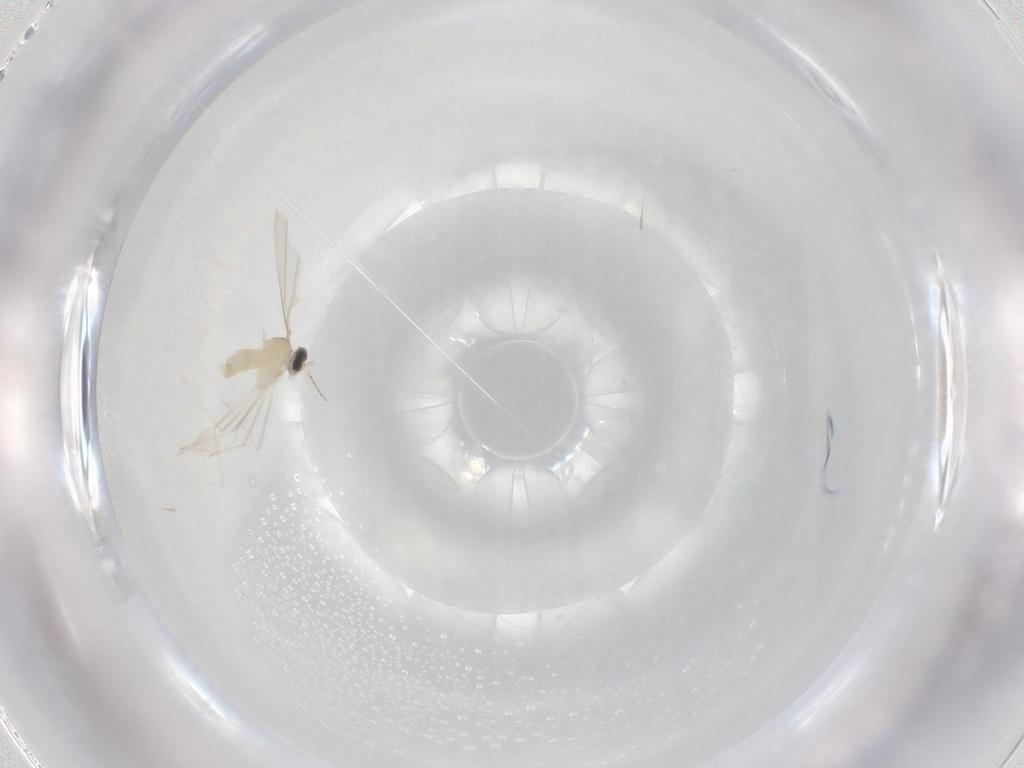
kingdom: Animalia
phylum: Arthropoda
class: Insecta
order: Diptera
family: Cecidomyiidae
